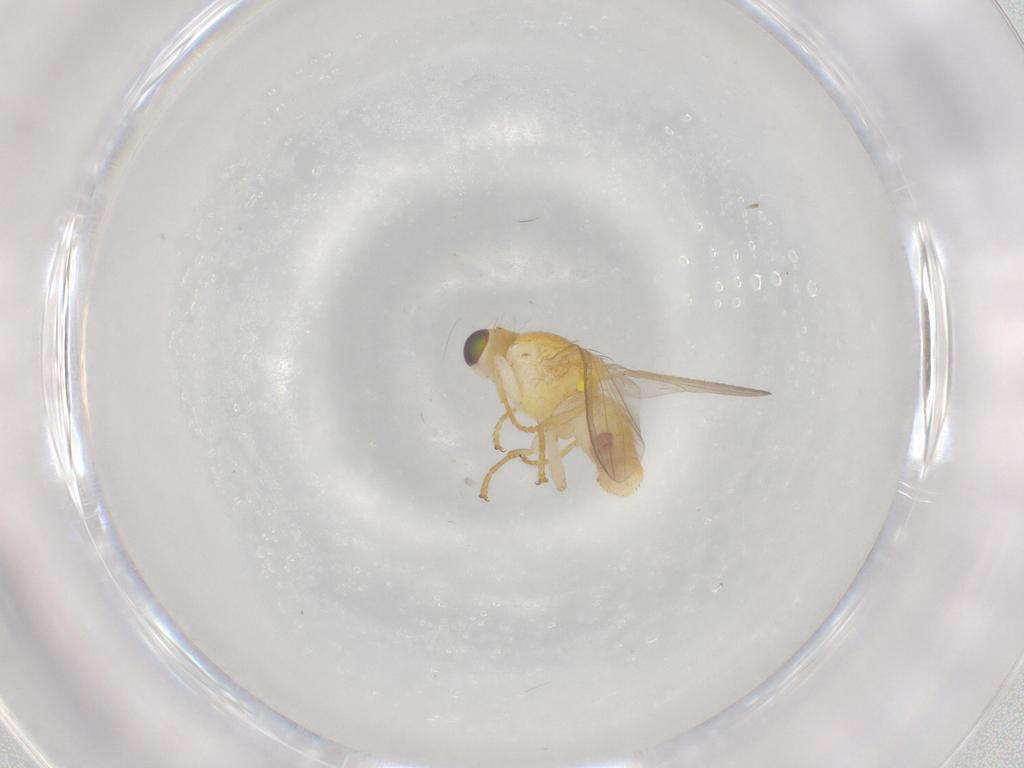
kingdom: Animalia
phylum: Arthropoda
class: Insecta
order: Diptera
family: Chyromyidae
